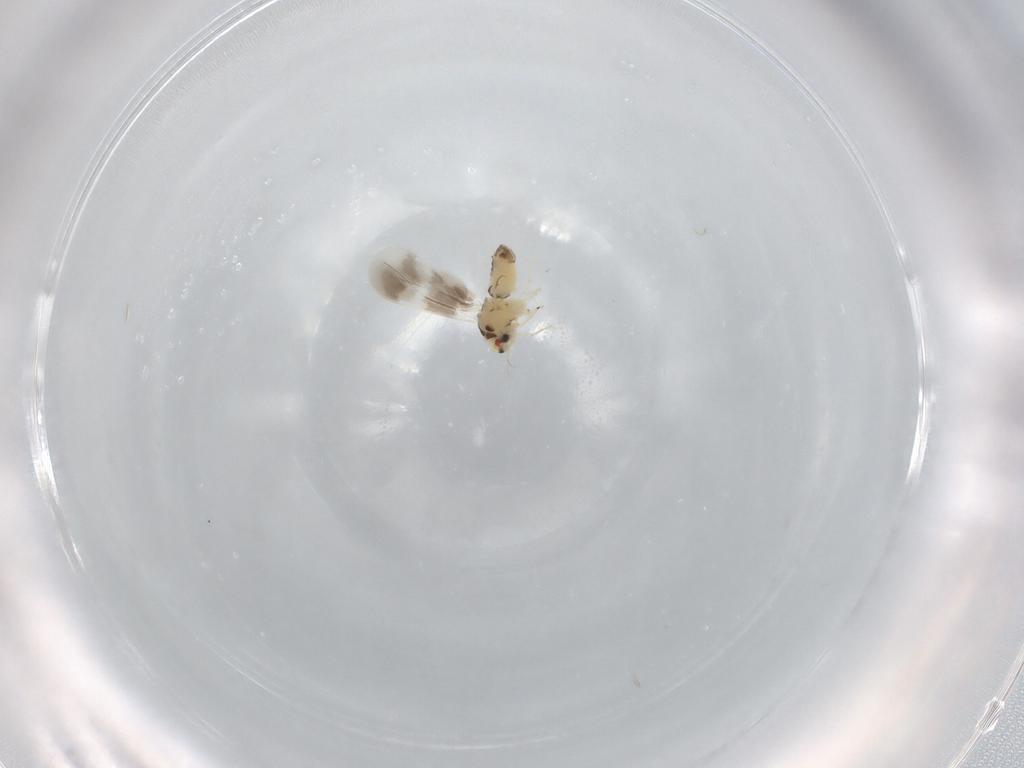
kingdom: Animalia
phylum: Arthropoda
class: Insecta
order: Hemiptera
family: Aleyrodidae
